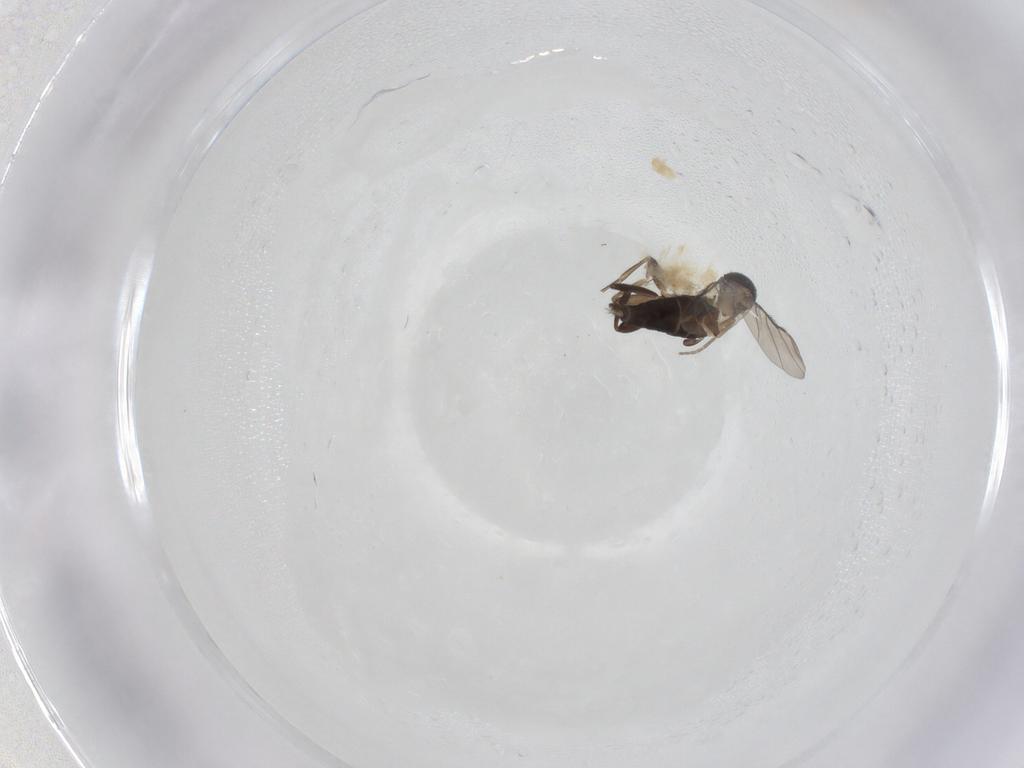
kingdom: Animalia
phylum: Arthropoda
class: Insecta
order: Diptera
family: Phoridae
